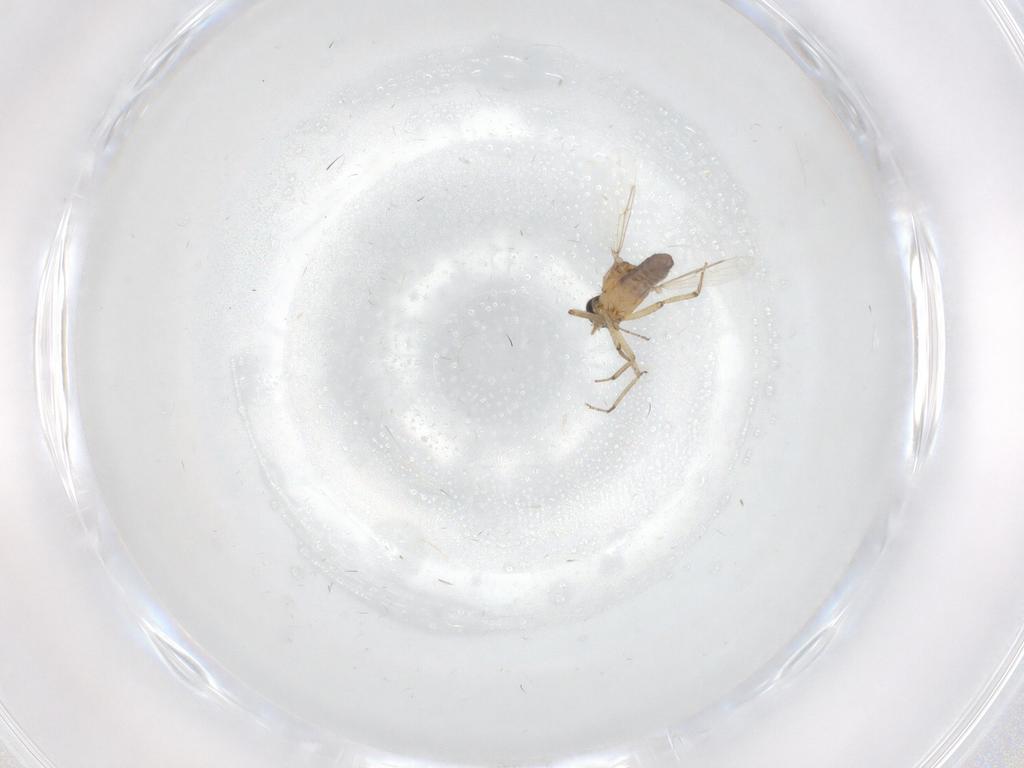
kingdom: Animalia
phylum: Arthropoda
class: Insecta
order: Diptera
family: Ceratopogonidae
